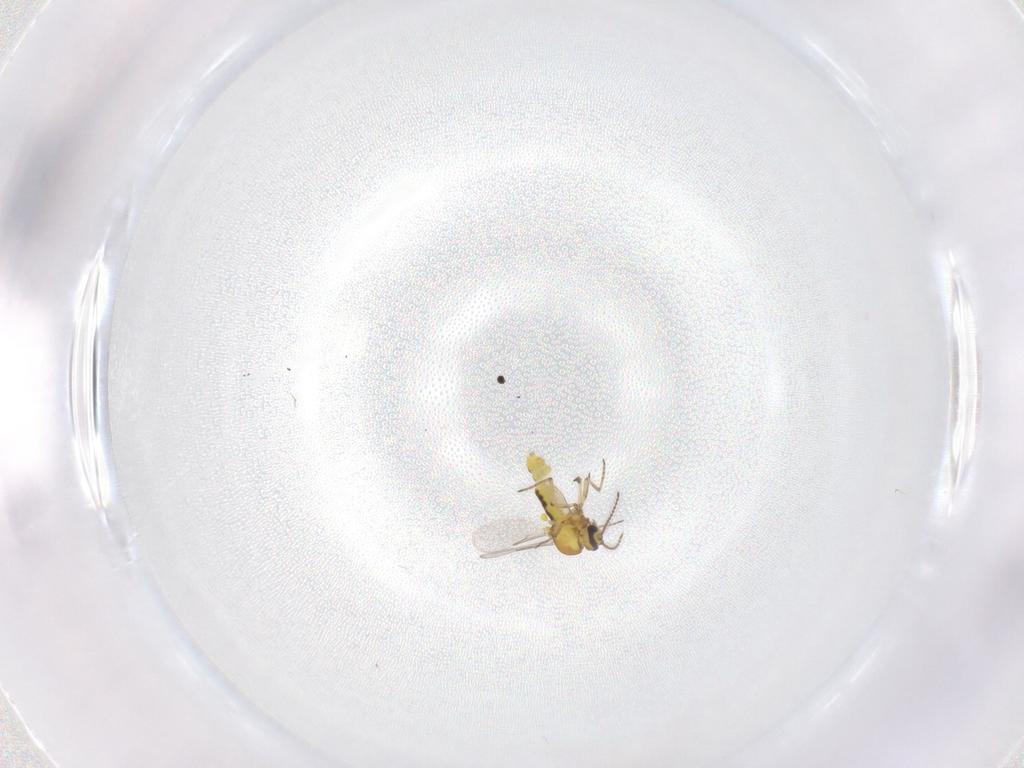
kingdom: Animalia
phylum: Arthropoda
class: Insecta
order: Diptera
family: Ceratopogonidae
